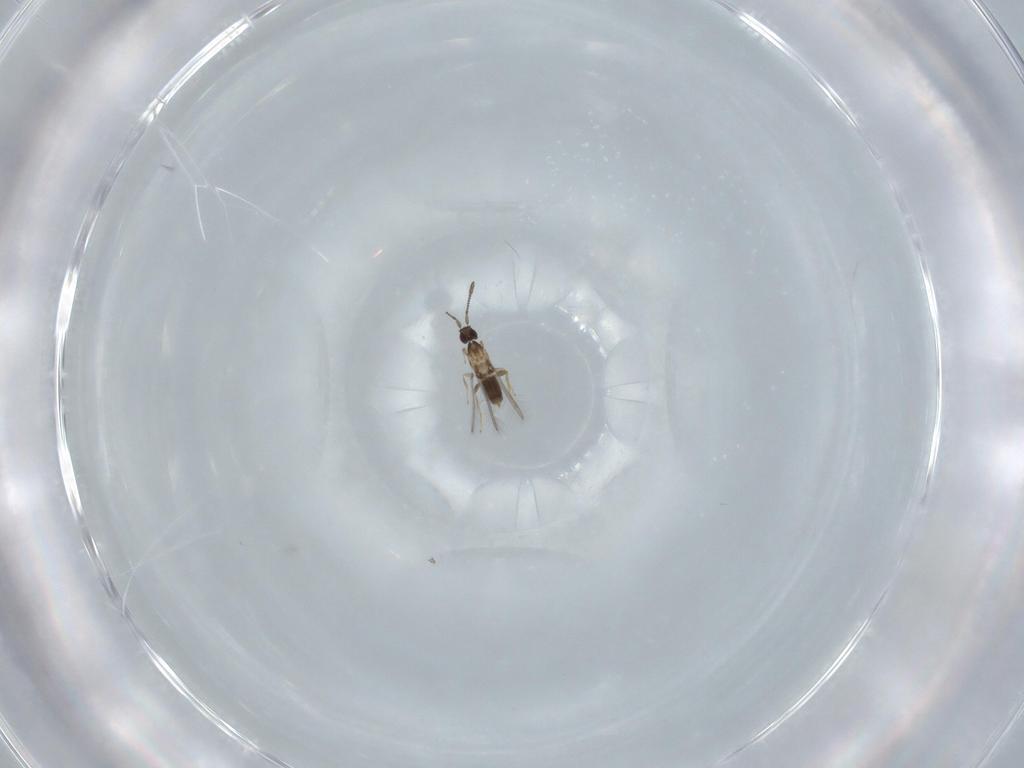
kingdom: Animalia
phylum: Arthropoda
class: Insecta
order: Hymenoptera
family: Mymaridae
